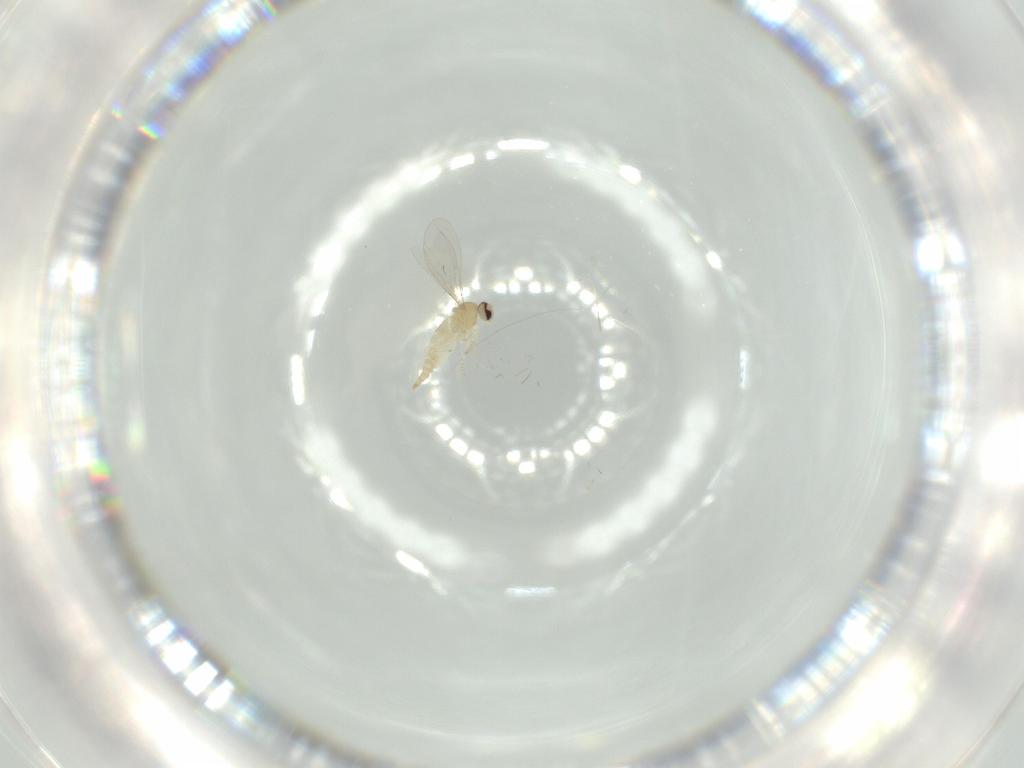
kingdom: Animalia
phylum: Arthropoda
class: Insecta
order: Diptera
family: Cecidomyiidae
